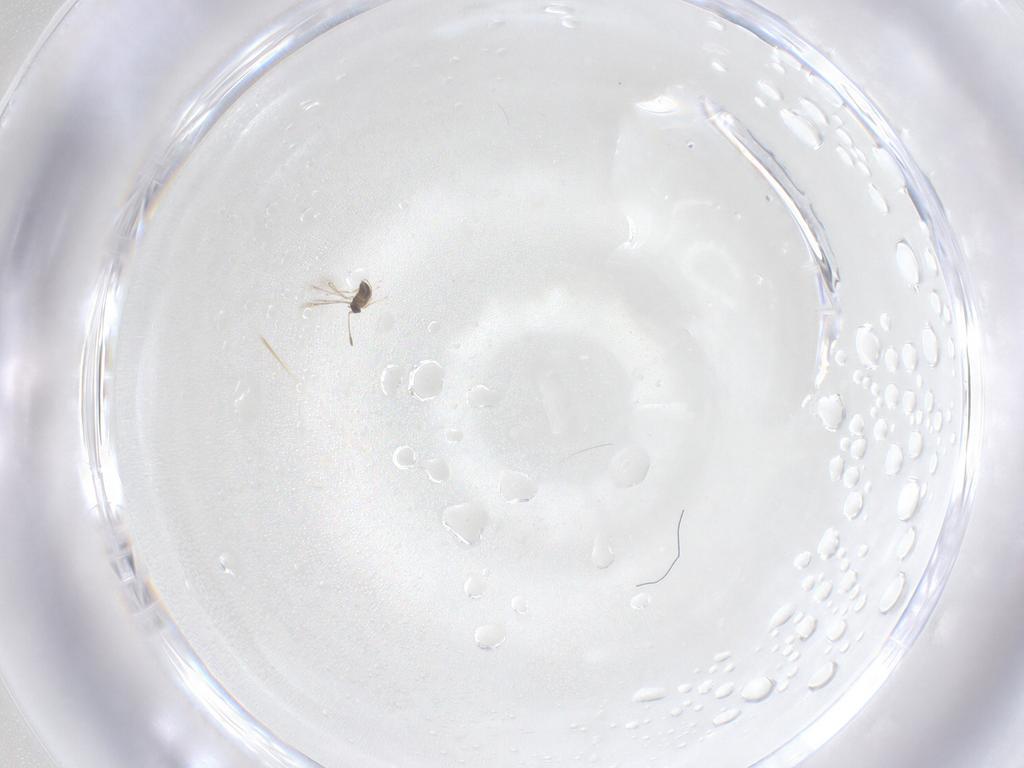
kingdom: Animalia
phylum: Arthropoda
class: Insecta
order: Hymenoptera
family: Mymaridae
